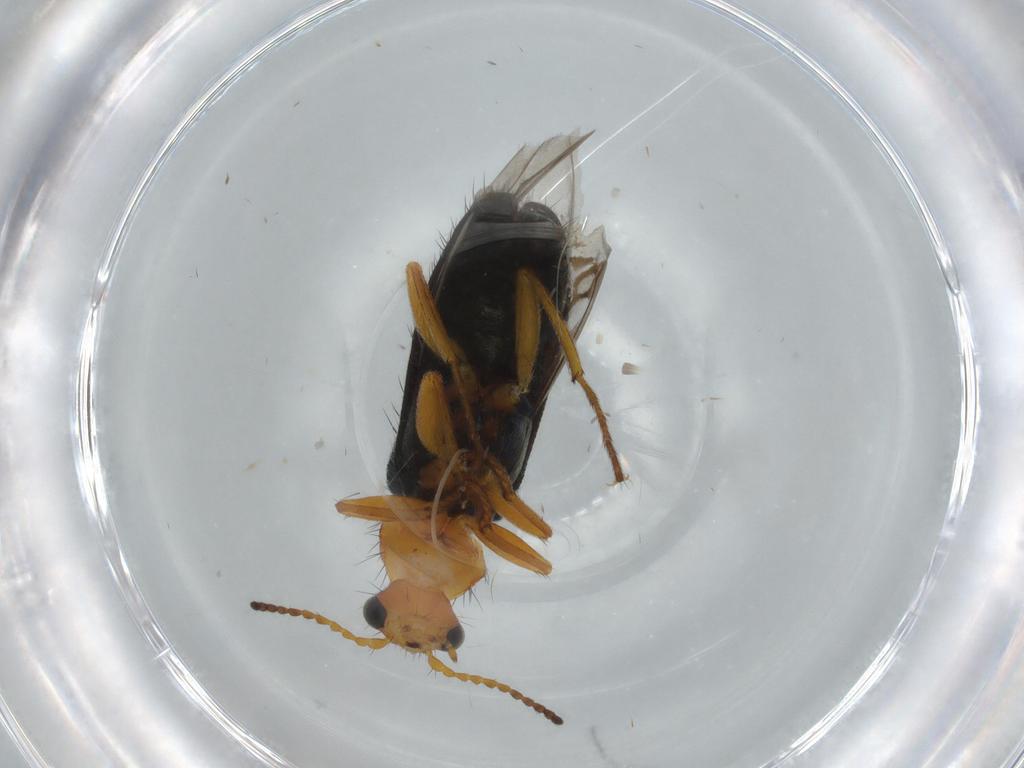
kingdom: Animalia
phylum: Arthropoda
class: Insecta
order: Coleoptera
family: Melyridae
